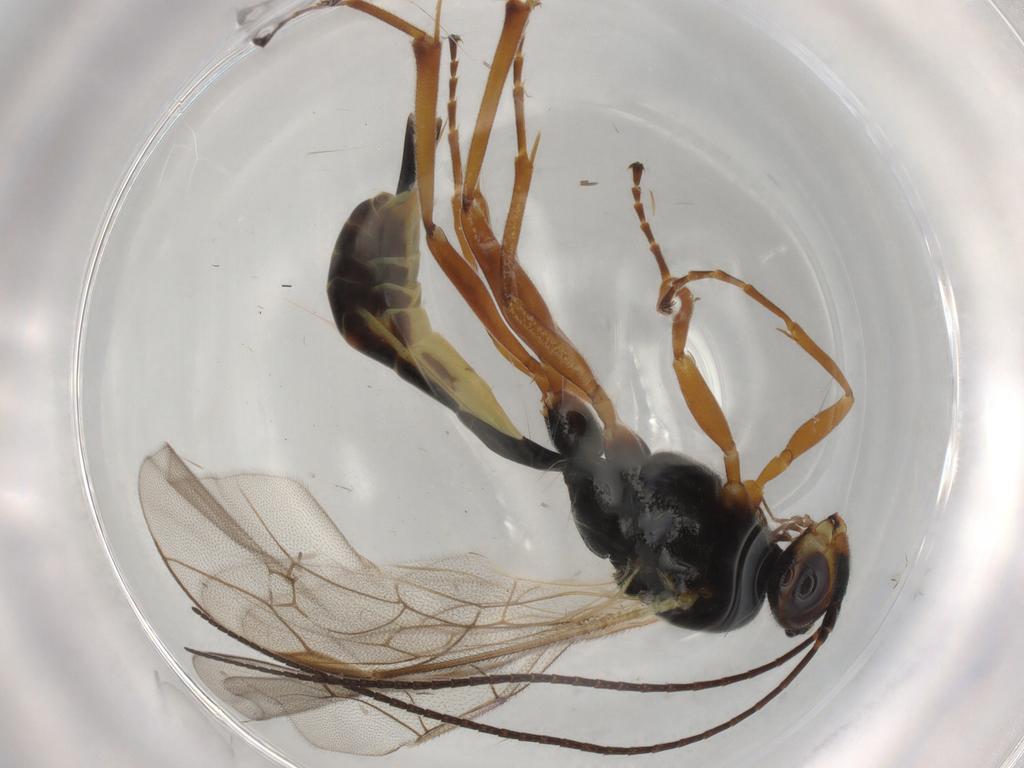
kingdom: Animalia
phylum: Arthropoda
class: Insecta
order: Hymenoptera
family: Ichneumonidae
